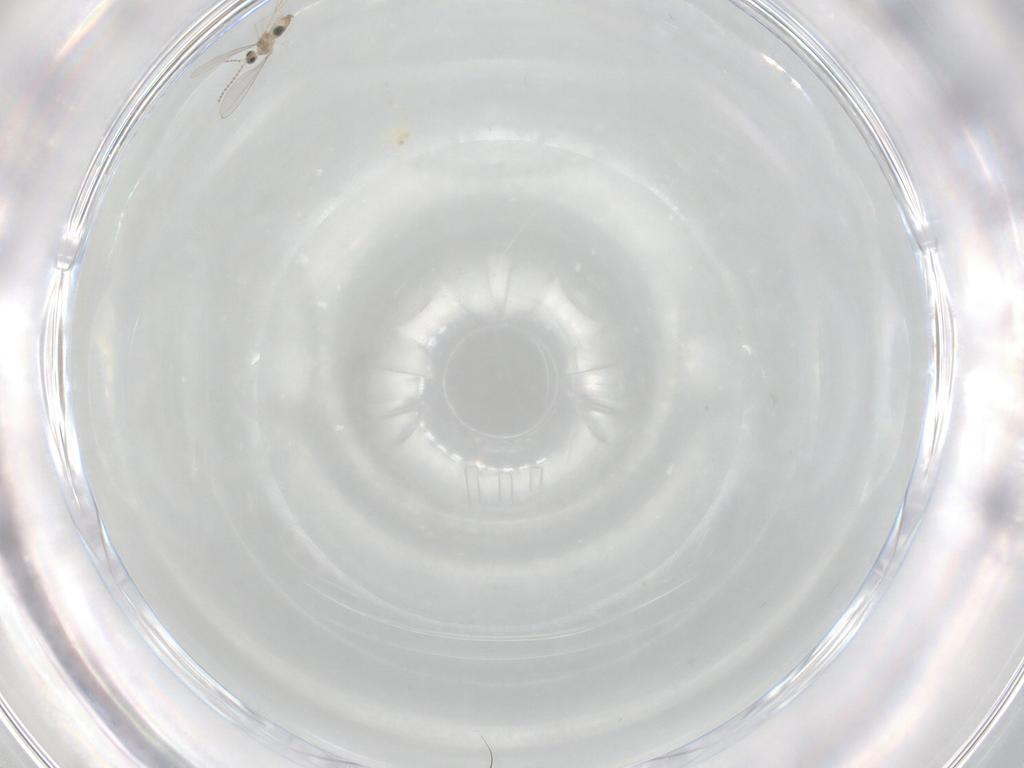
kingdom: Animalia
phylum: Arthropoda
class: Insecta
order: Diptera
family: Cecidomyiidae
